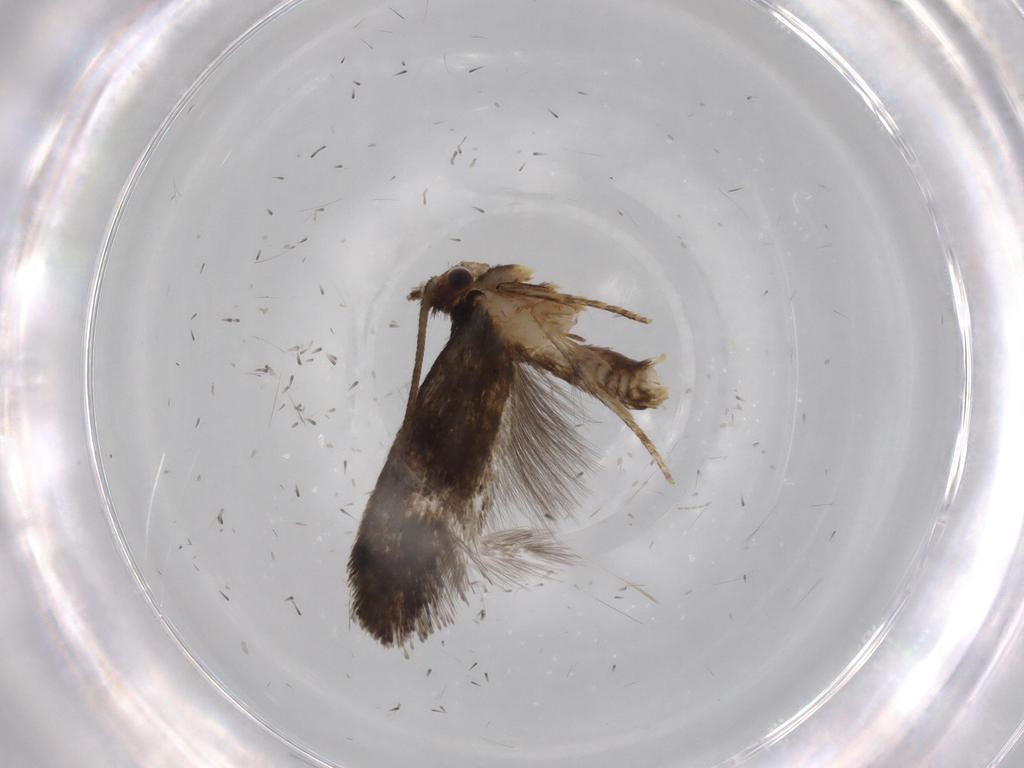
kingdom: Animalia
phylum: Arthropoda
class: Insecta
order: Lepidoptera
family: Tineidae
